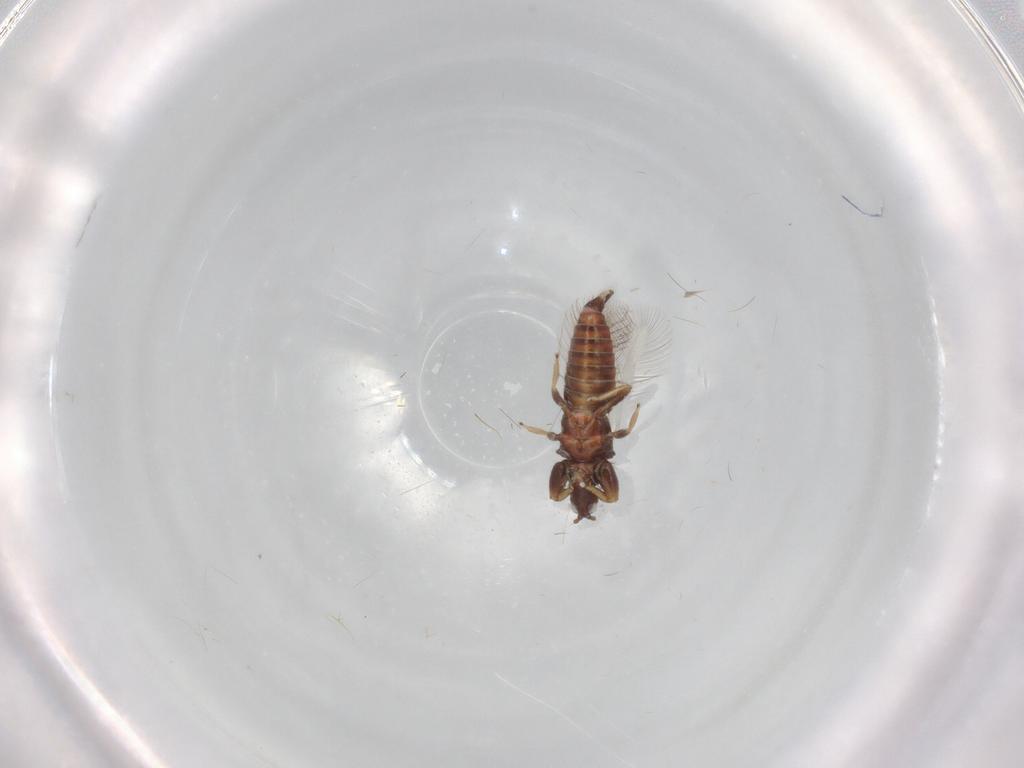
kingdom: Animalia
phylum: Arthropoda
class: Insecta
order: Thysanoptera
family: Phlaeothripidae
